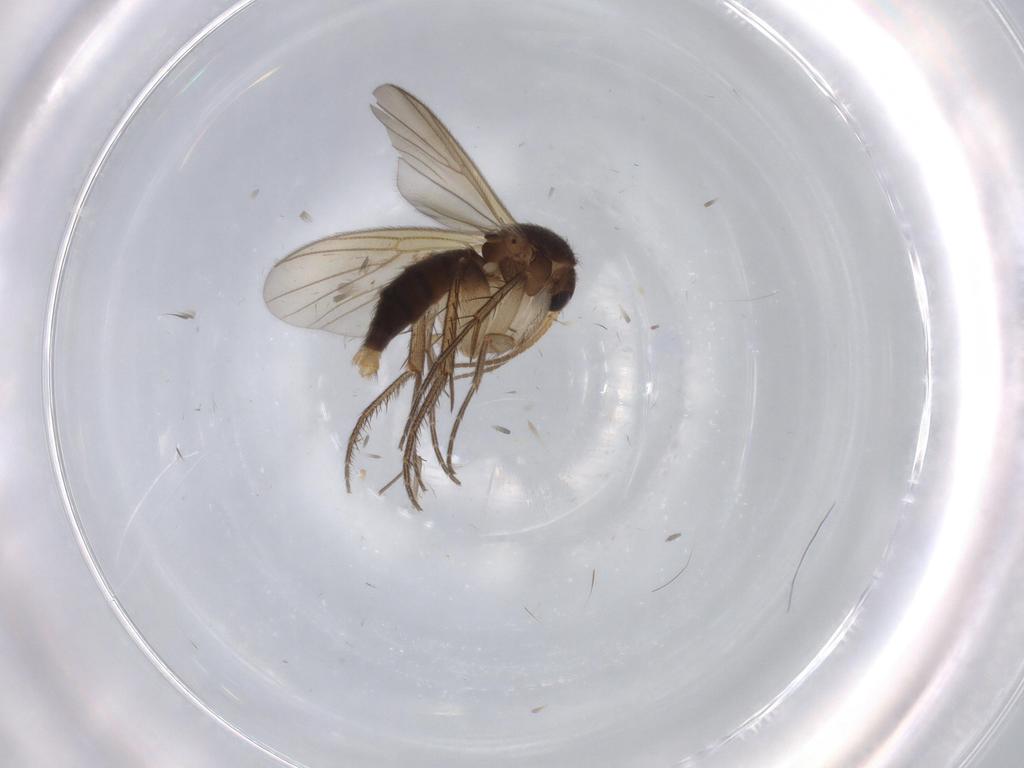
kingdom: Animalia
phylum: Arthropoda
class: Insecta
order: Diptera
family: Chironomidae
